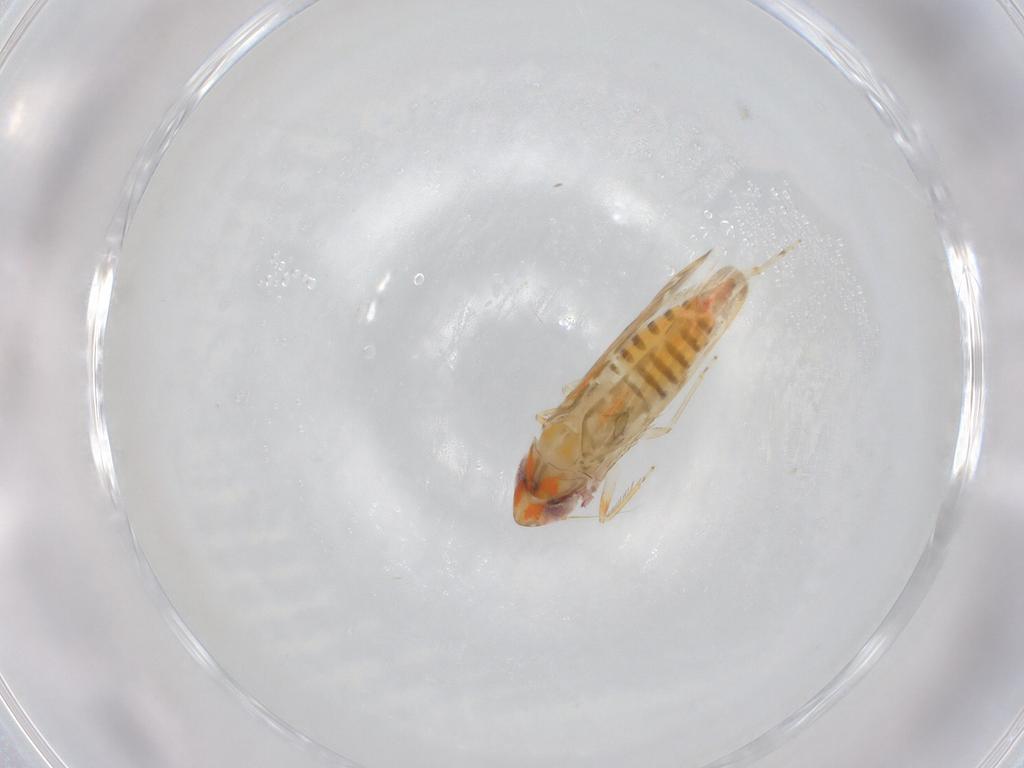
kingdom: Animalia
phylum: Arthropoda
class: Insecta
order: Hemiptera
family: Cicadellidae
